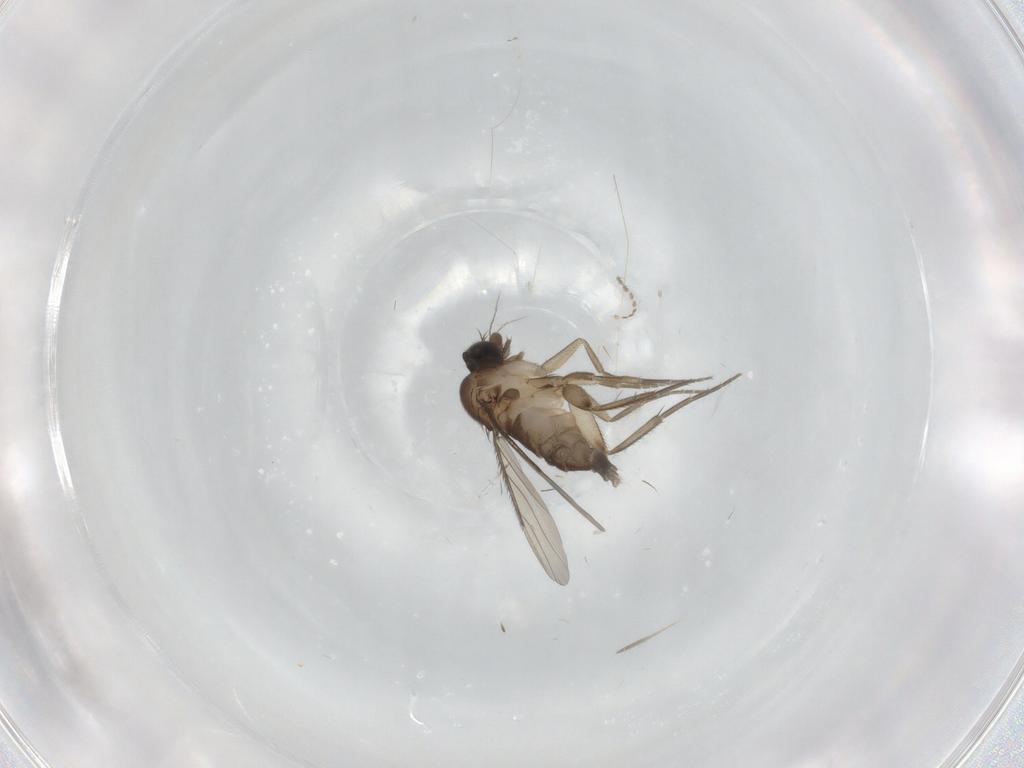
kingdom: Animalia
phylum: Arthropoda
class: Insecta
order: Diptera
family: Phoridae
